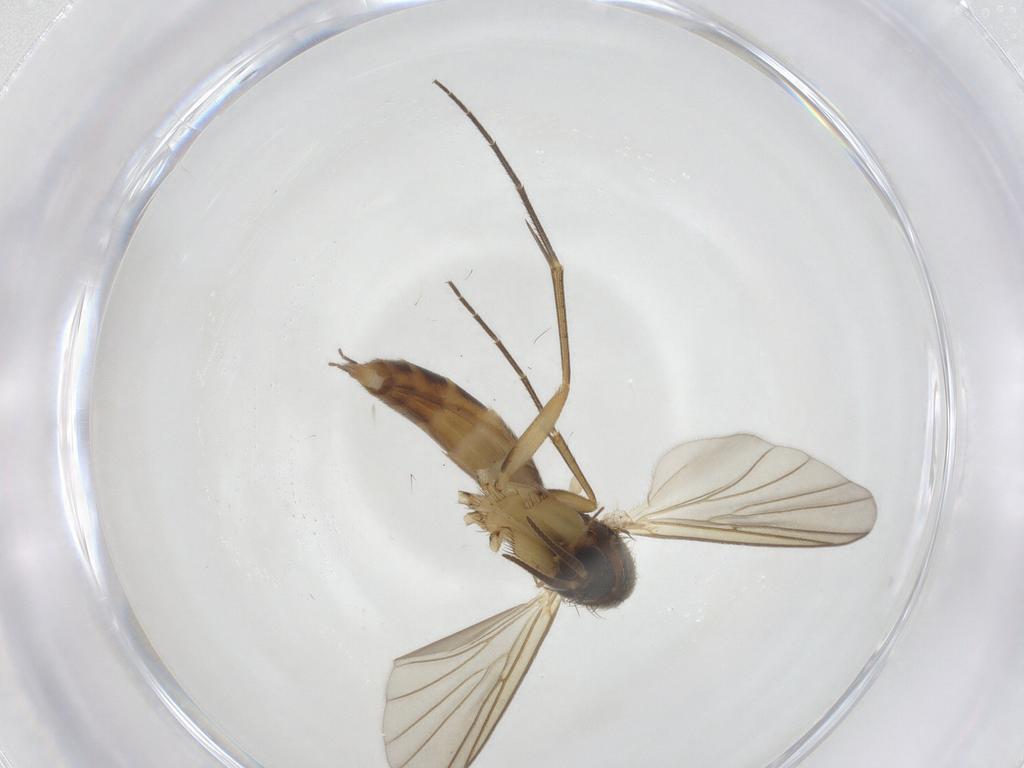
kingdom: Animalia
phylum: Arthropoda
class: Insecta
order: Diptera
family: Mycetophilidae
